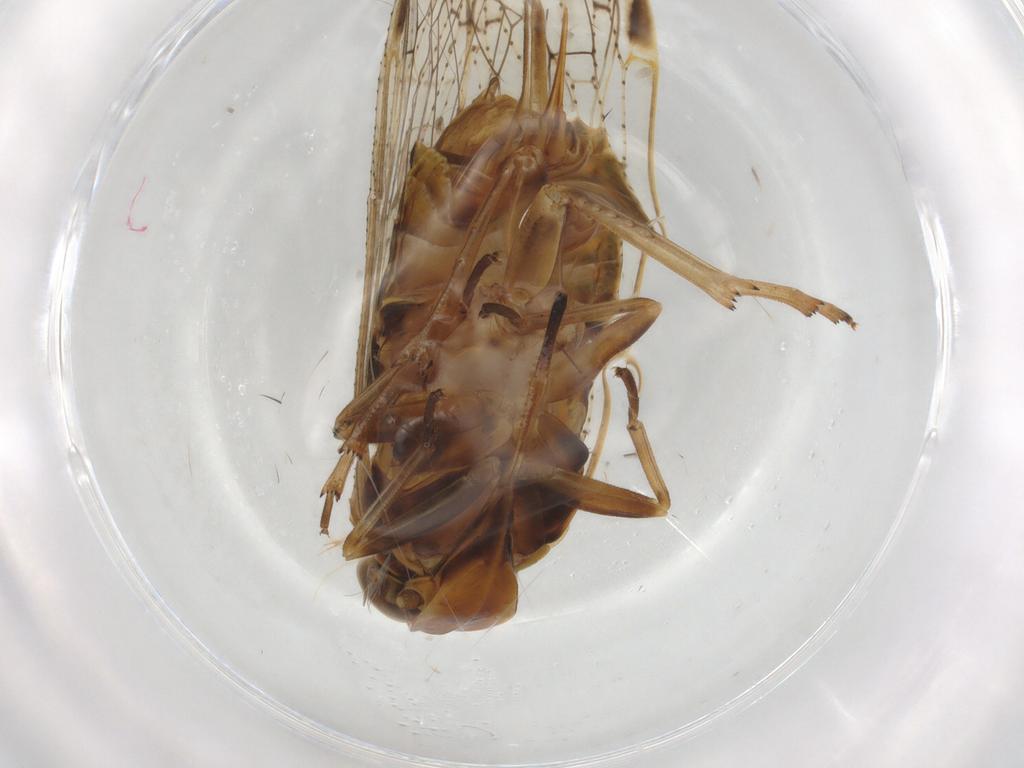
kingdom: Animalia
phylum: Arthropoda
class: Insecta
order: Hemiptera
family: Cixiidae
